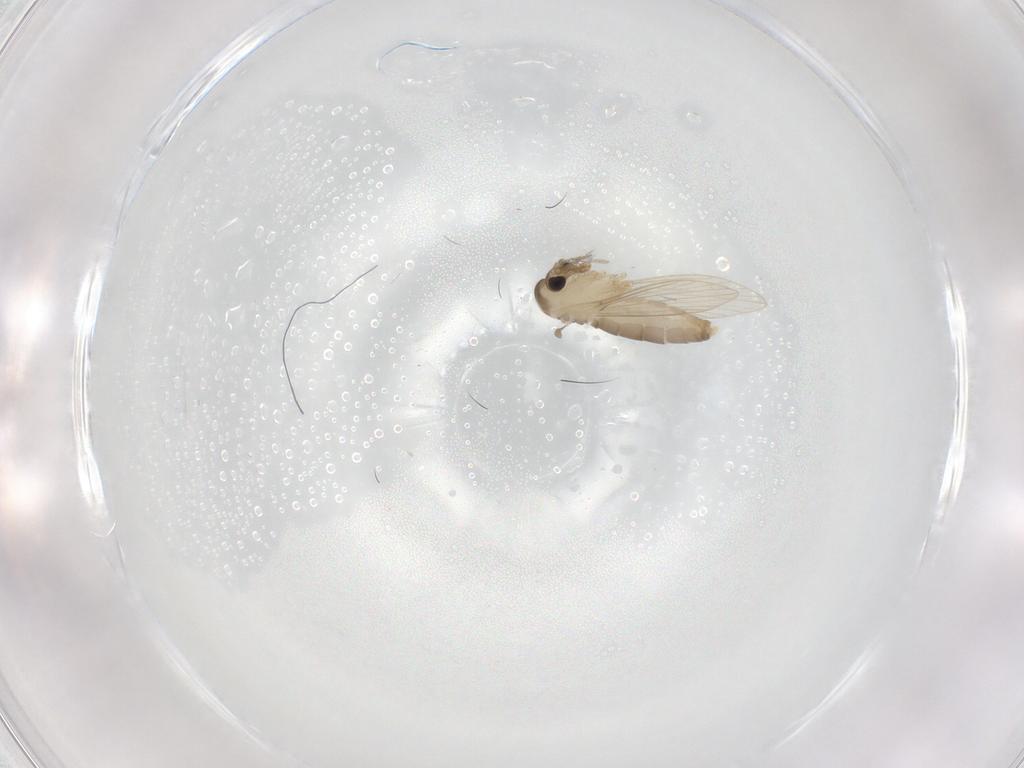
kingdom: Animalia
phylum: Arthropoda
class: Insecta
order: Diptera
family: Psychodidae
